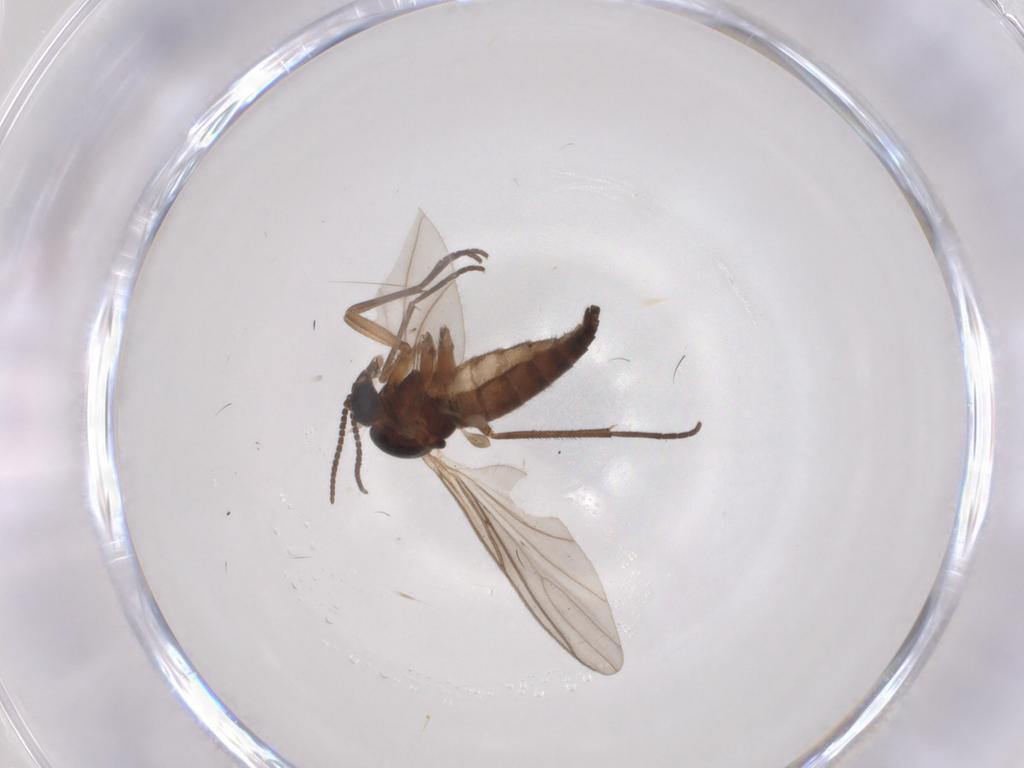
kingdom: Animalia
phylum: Arthropoda
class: Insecta
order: Diptera
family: Sciaridae
